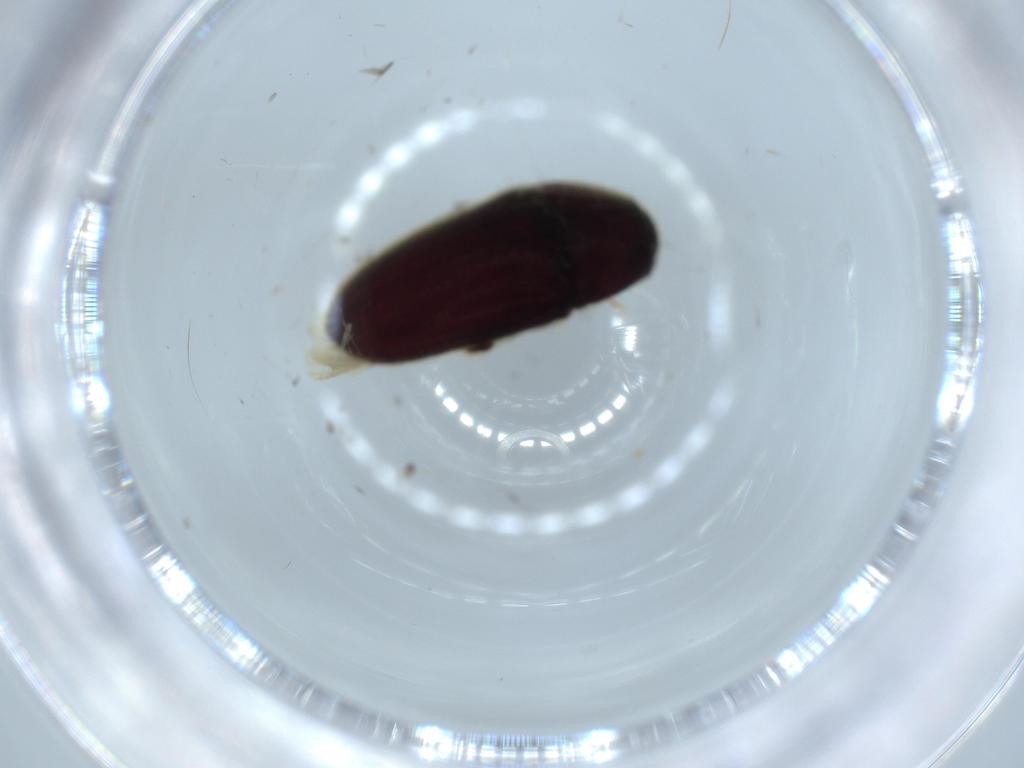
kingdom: Animalia
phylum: Arthropoda
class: Insecta
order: Coleoptera
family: Throscidae
